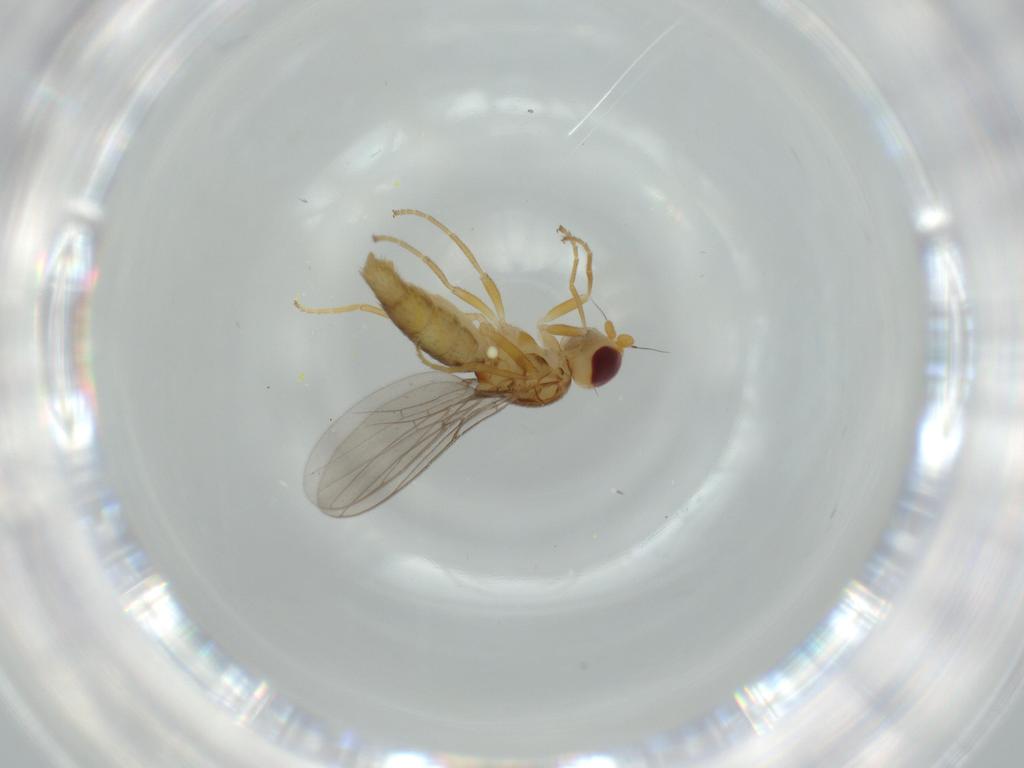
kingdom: Animalia
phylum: Arthropoda
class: Insecta
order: Diptera
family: Chloropidae
